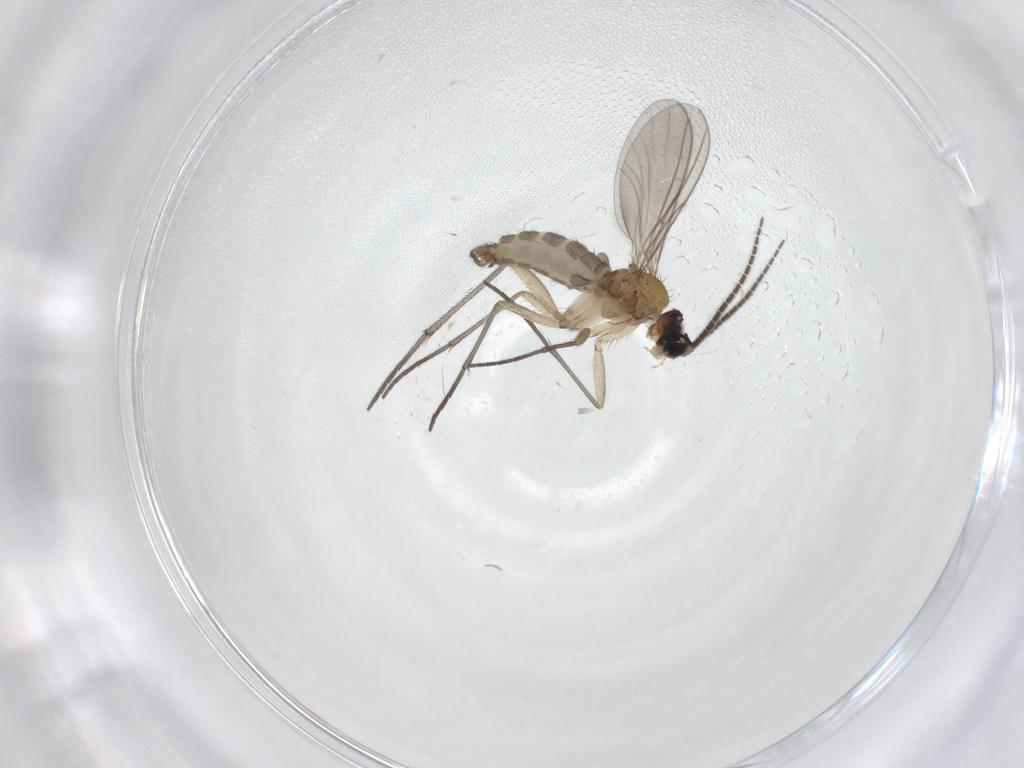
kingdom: Animalia
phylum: Arthropoda
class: Insecta
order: Diptera
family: Sciaridae
